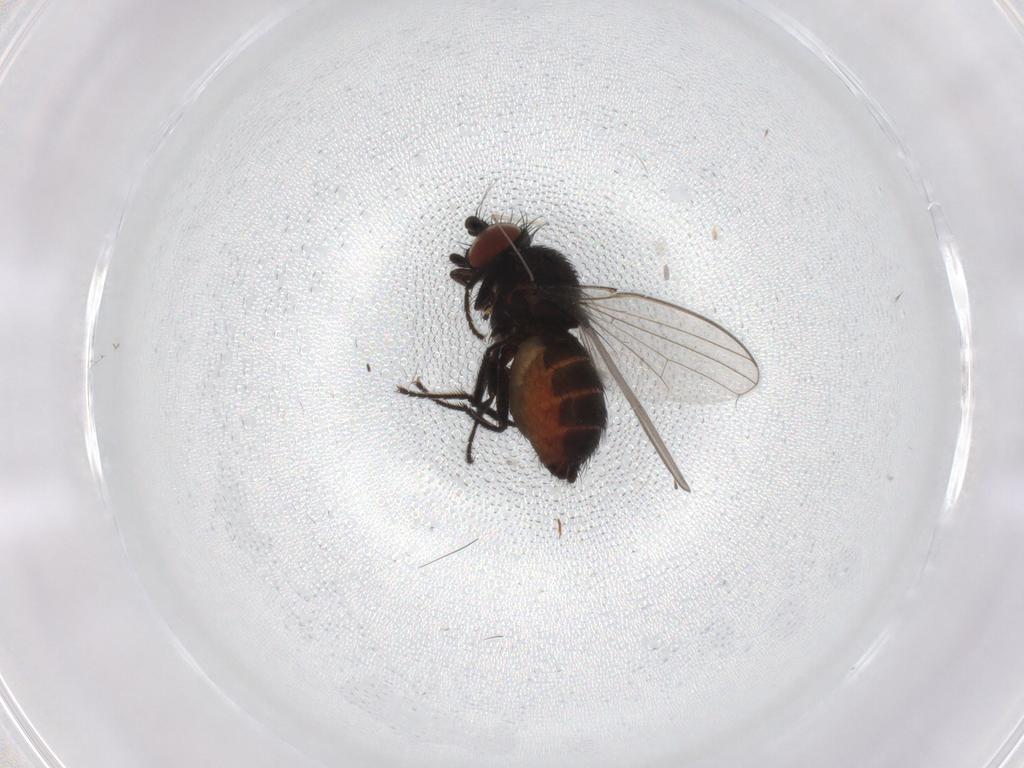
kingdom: Animalia
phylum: Arthropoda
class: Insecta
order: Diptera
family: Milichiidae
